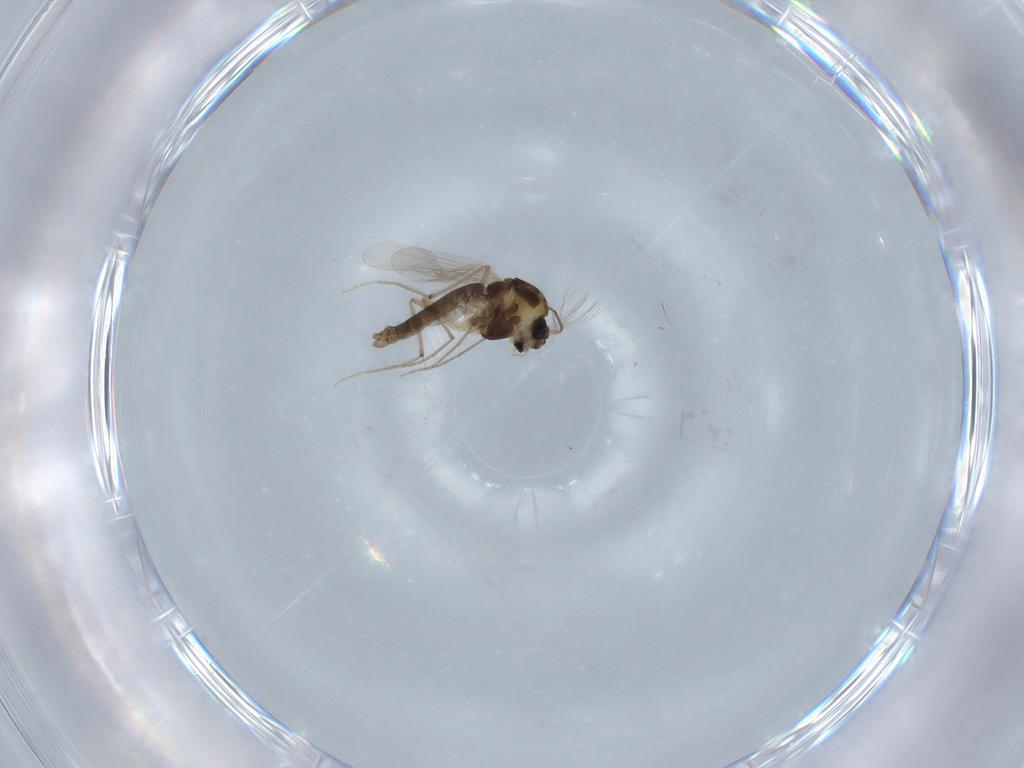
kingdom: Animalia
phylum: Arthropoda
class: Insecta
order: Diptera
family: Chironomidae
